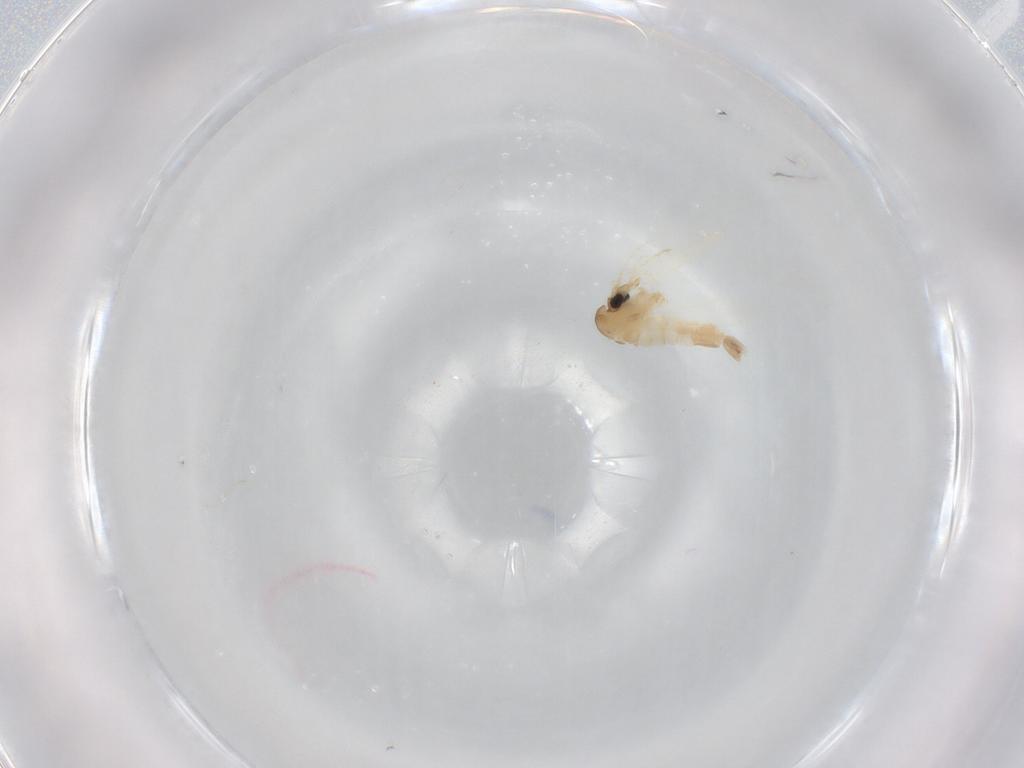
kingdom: Animalia
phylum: Arthropoda
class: Insecta
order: Diptera
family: Psychodidae
